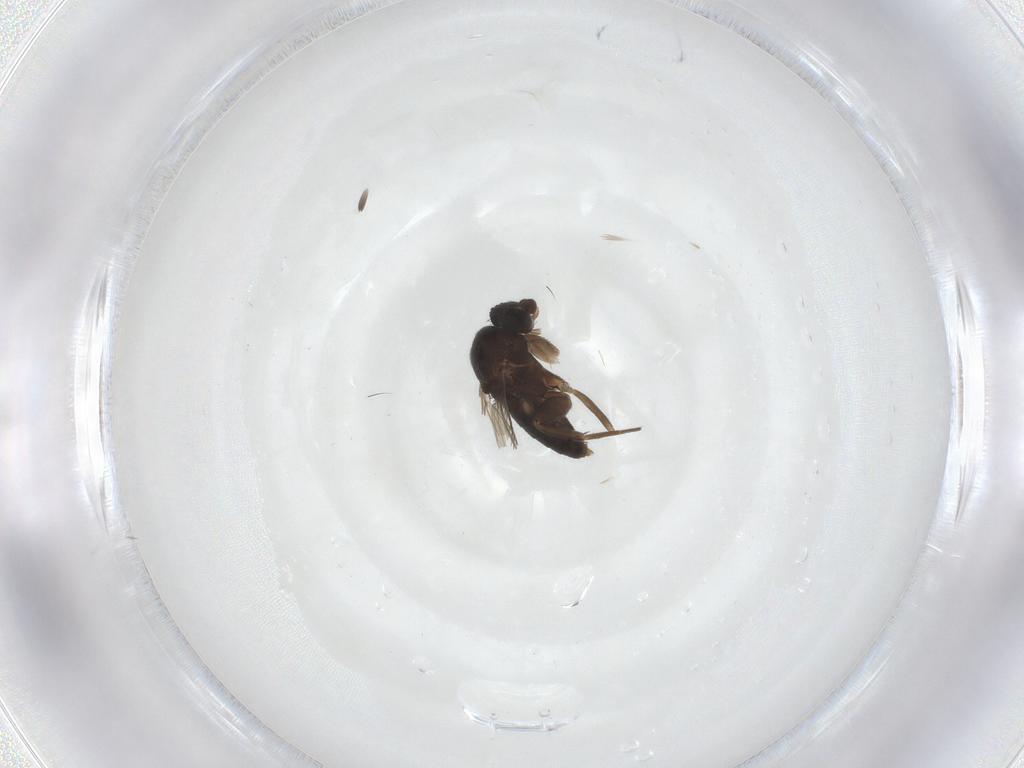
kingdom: Animalia
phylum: Arthropoda
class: Insecta
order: Diptera
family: Phoridae
